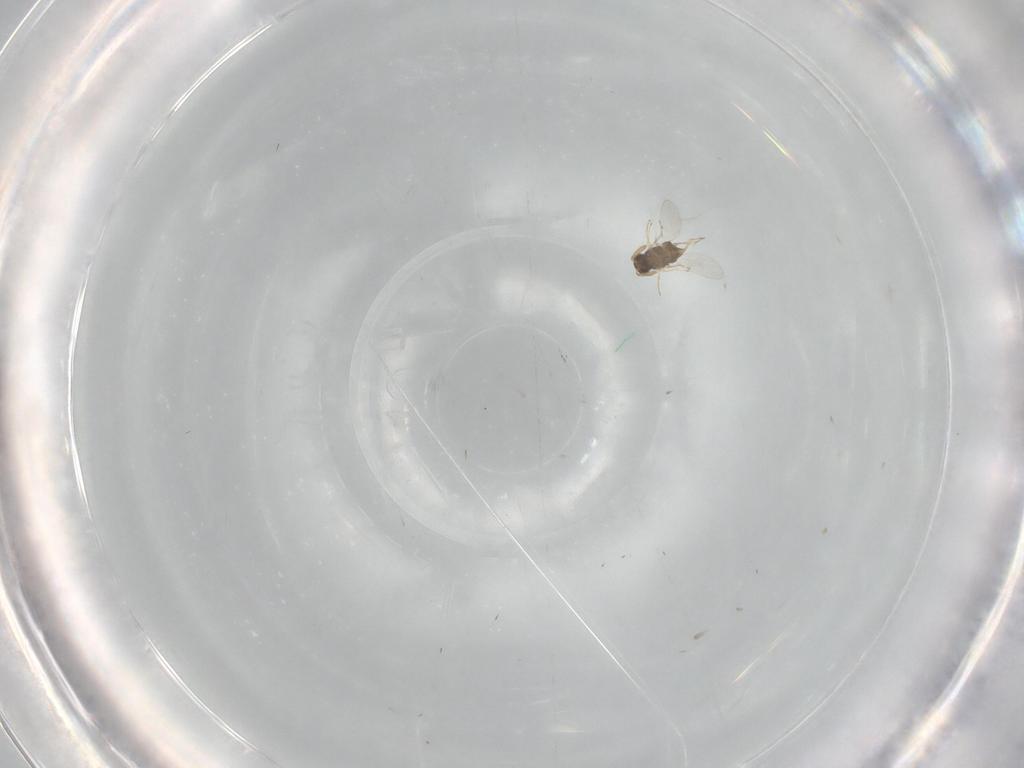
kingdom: Animalia
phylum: Arthropoda
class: Insecta
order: Hymenoptera
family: Encyrtidae
